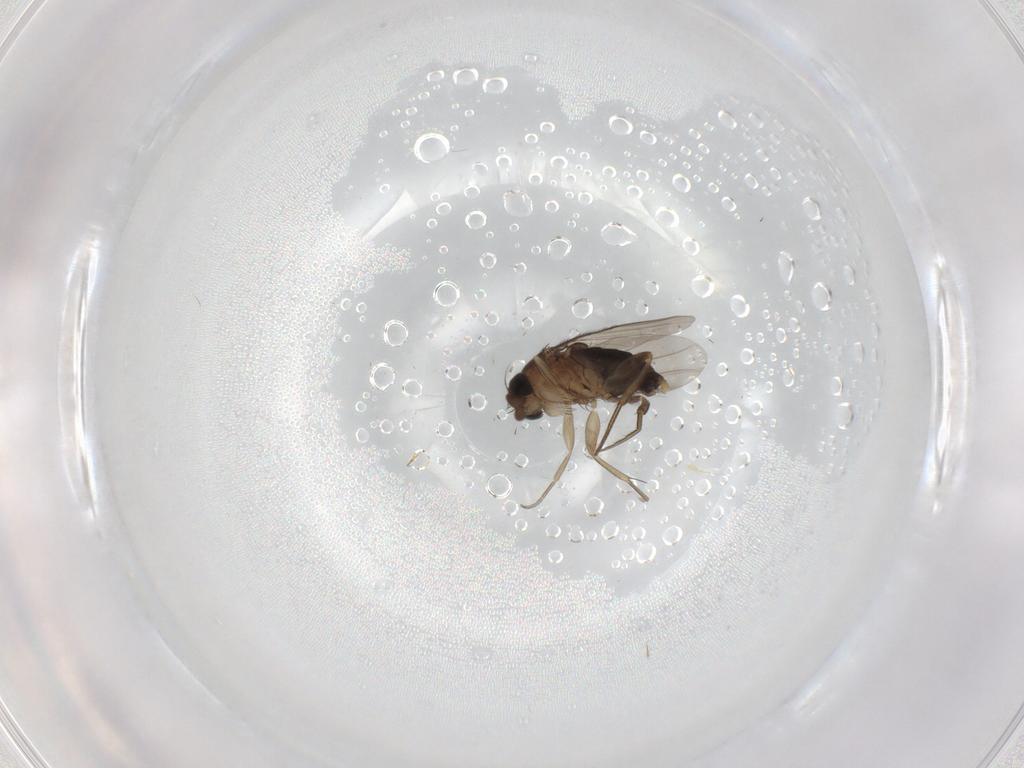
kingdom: Animalia
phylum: Arthropoda
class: Insecta
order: Diptera
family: Phoridae
